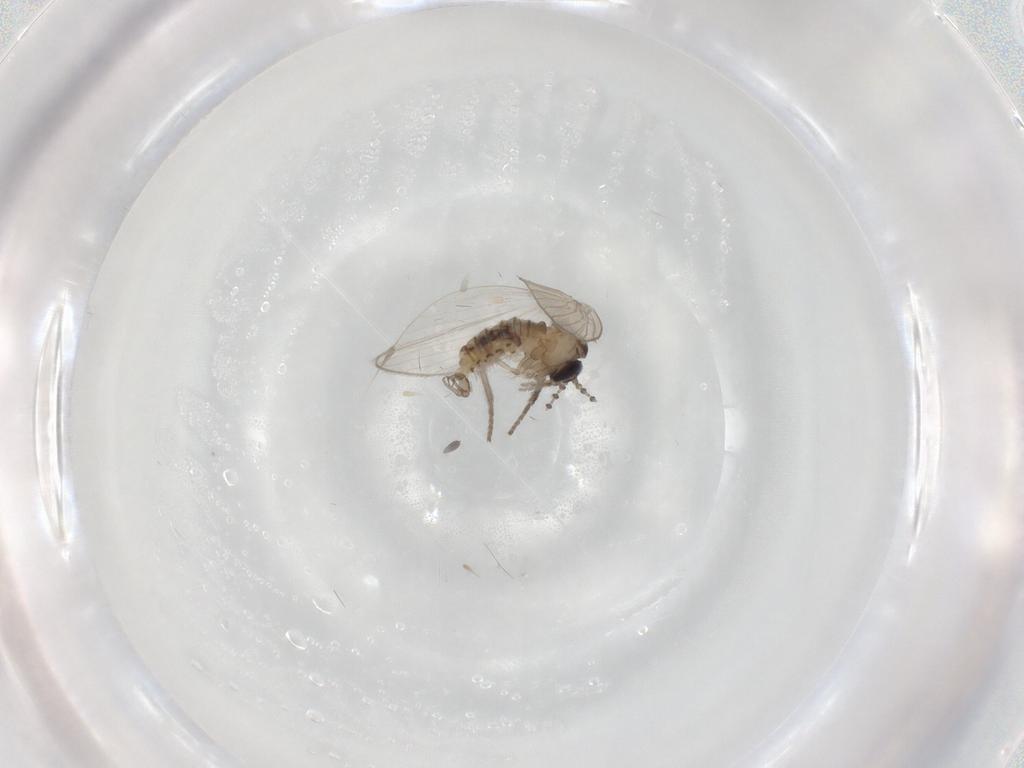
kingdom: Animalia
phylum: Arthropoda
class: Insecta
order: Diptera
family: Psychodidae
